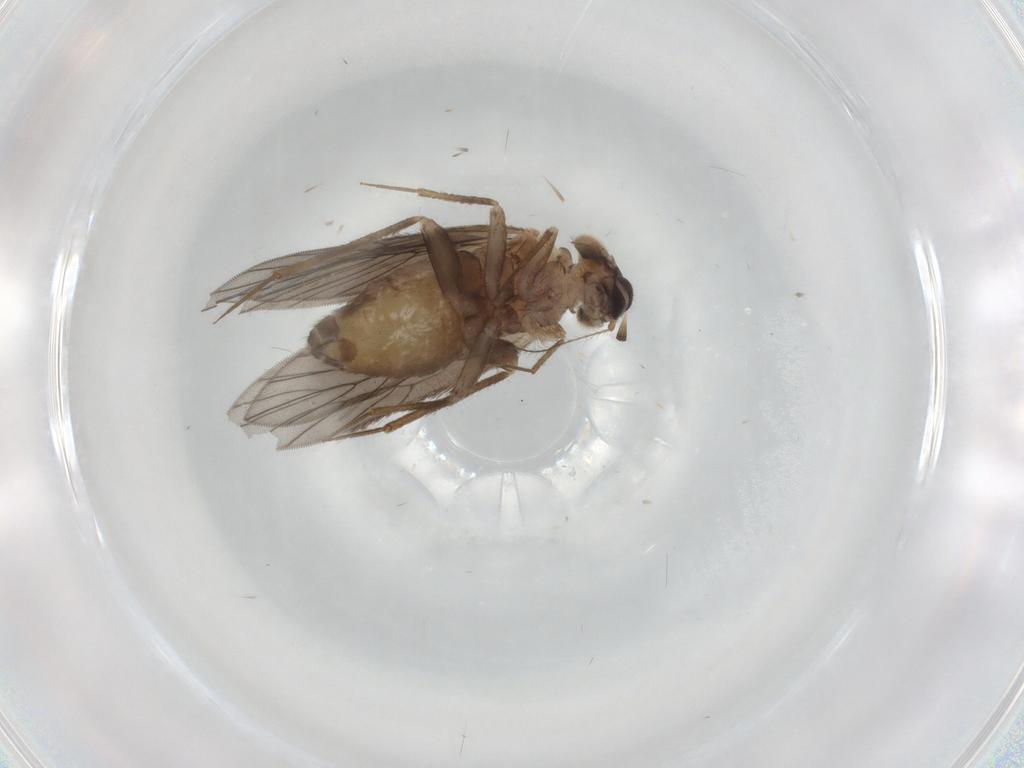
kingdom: Animalia
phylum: Arthropoda
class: Insecta
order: Psocodea
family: Lepidopsocidae
